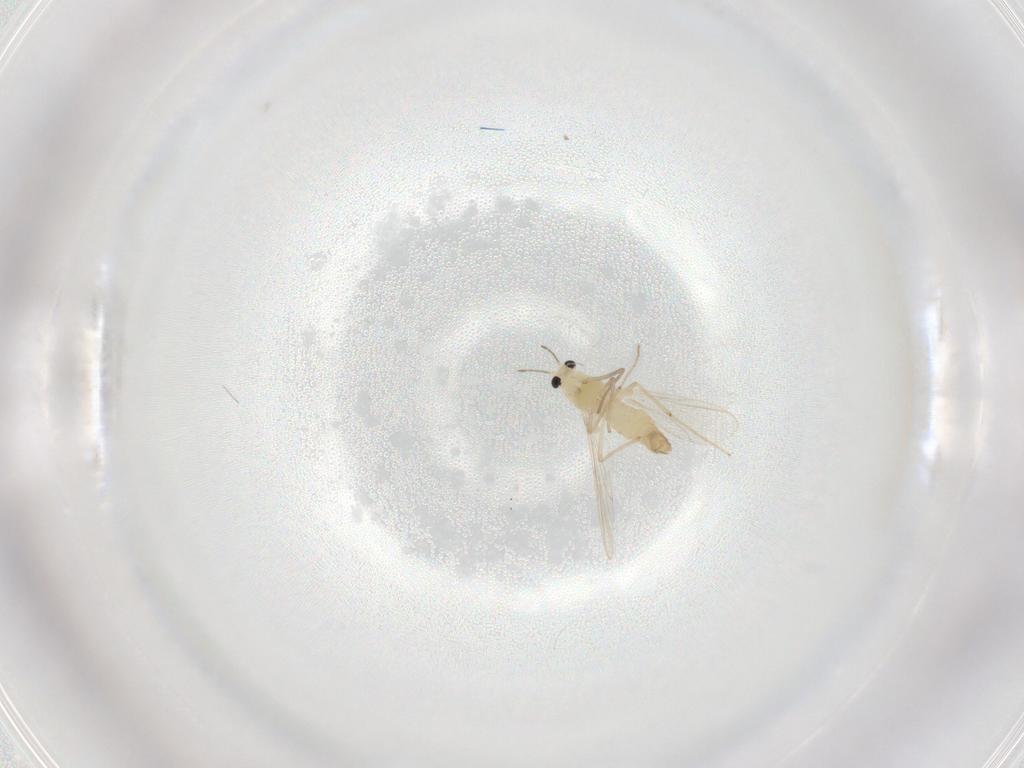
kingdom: Animalia
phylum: Arthropoda
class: Insecta
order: Diptera
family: Chironomidae
